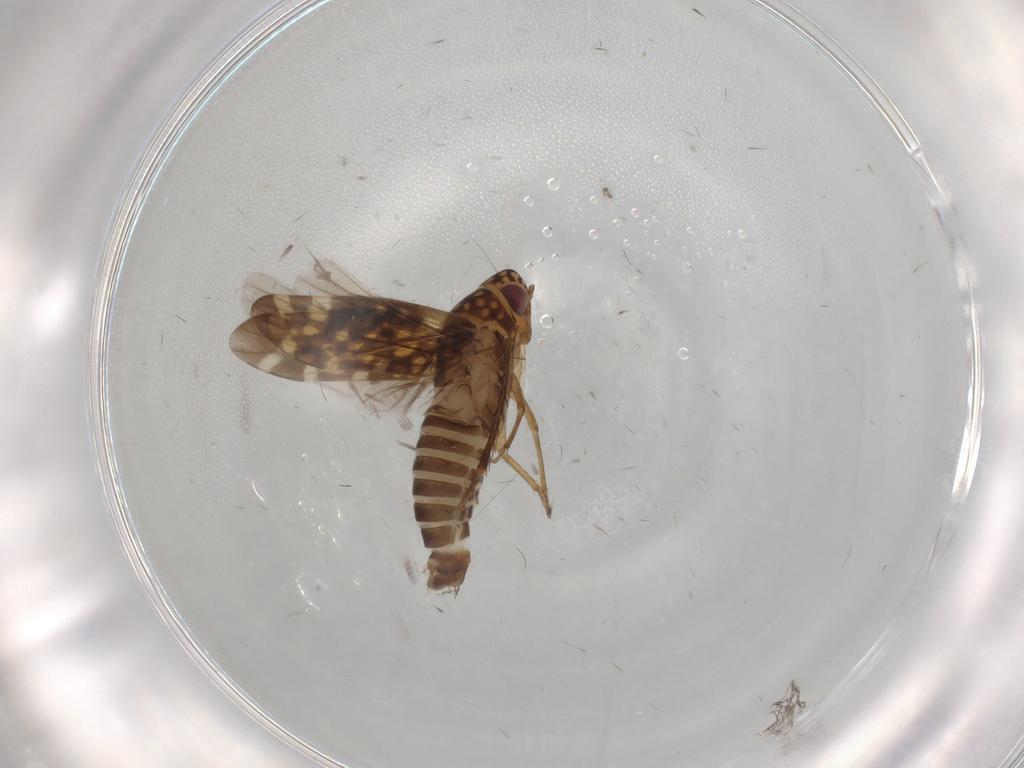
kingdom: Animalia
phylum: Arthropoda
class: Insecta
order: Hemiptera
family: Cicadellidae
